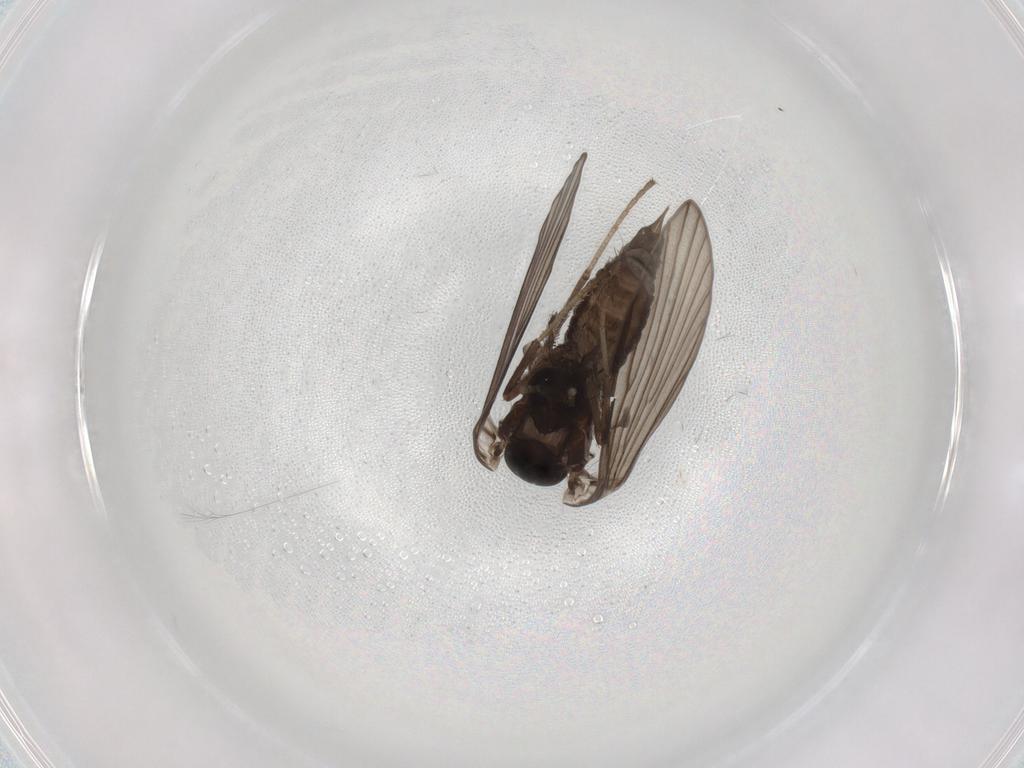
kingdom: Animalia
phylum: Arthropoda
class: Insecta
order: Diptera
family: Psychodidae
